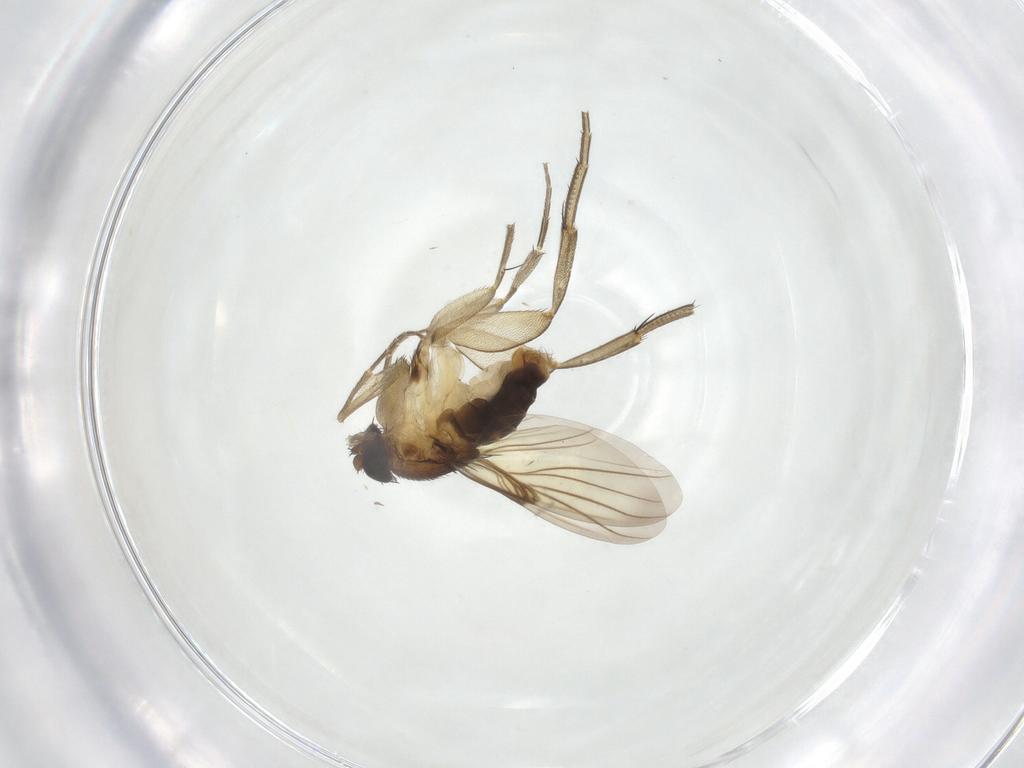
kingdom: Animalia
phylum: Arthropoda
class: Insecta
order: Diptera
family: Phoridae
